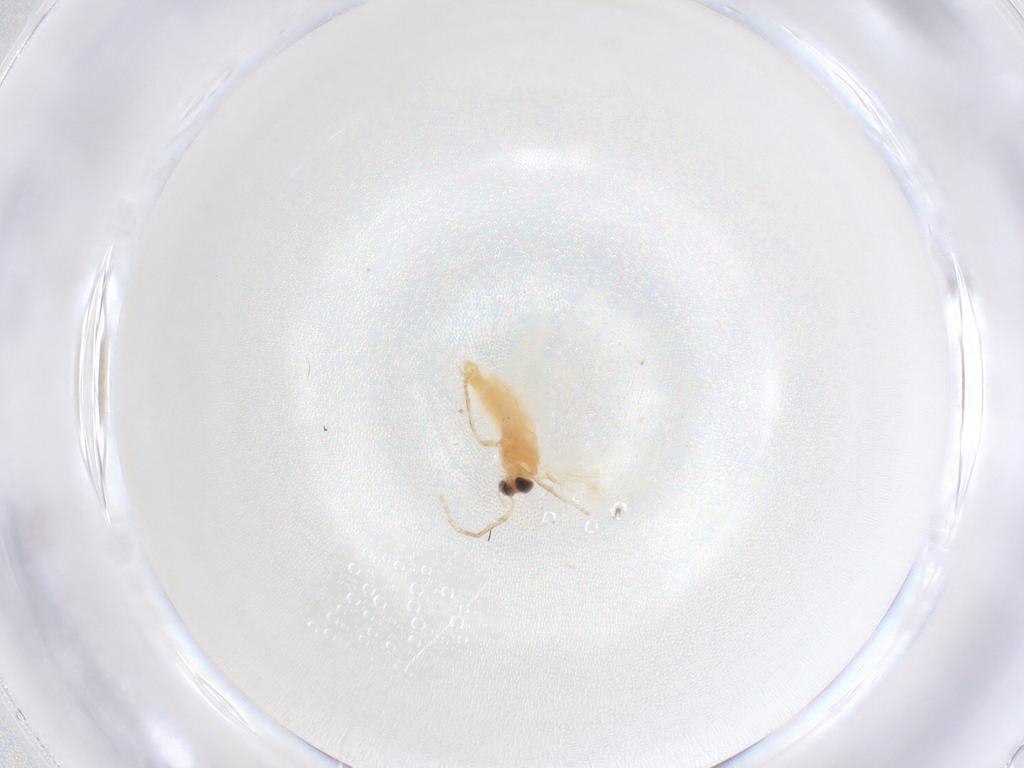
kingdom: Animalia
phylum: Arthropoda
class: Insecta
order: Lepidoptera
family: Nepticulidae
